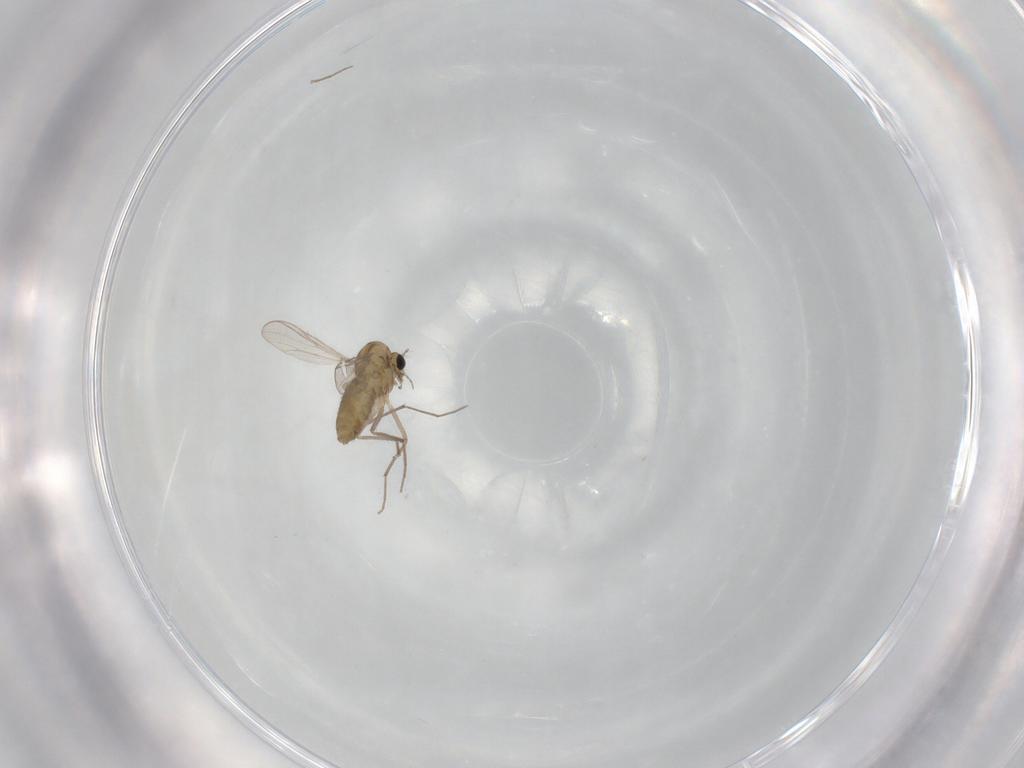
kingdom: Animalia
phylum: Arthropoda
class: Insecta
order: Diptera
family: Chironomidae
